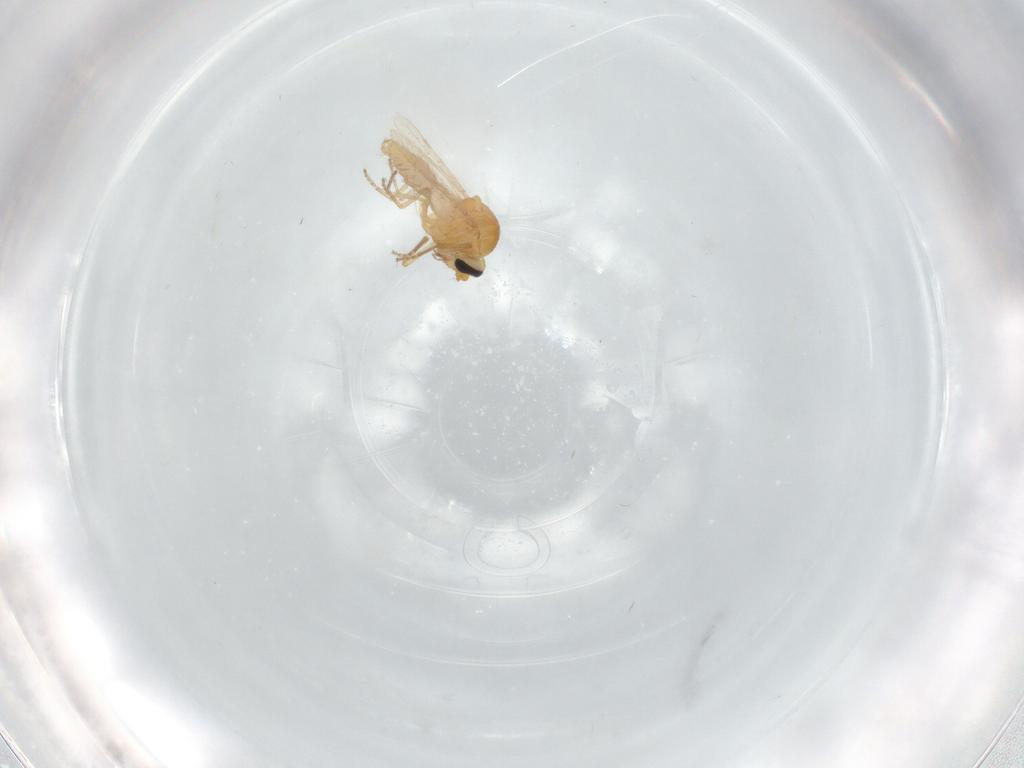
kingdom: Animalia
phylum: Arthropoda
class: Insecta
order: Diptera
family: Ceratopogonidae
